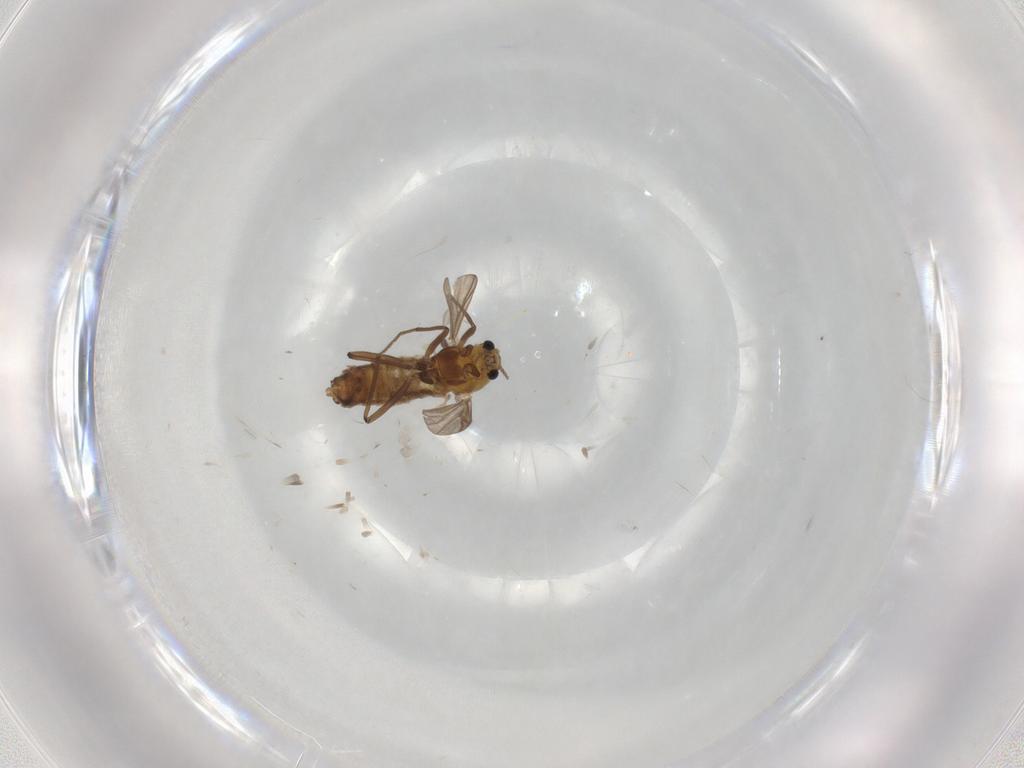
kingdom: Animalia
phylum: Arthropoda
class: Insecta
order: Diptera
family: Chironomidae
